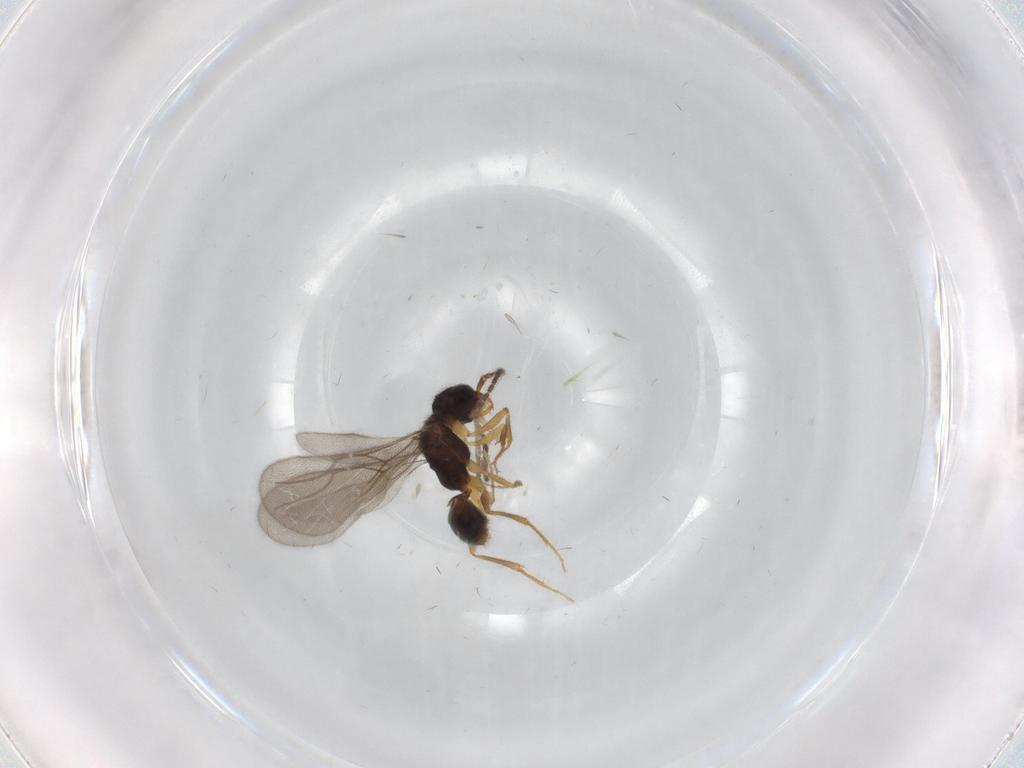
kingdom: Animalia
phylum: Arthropoda
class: Insecta
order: Hymenoptera
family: Bethylidae
